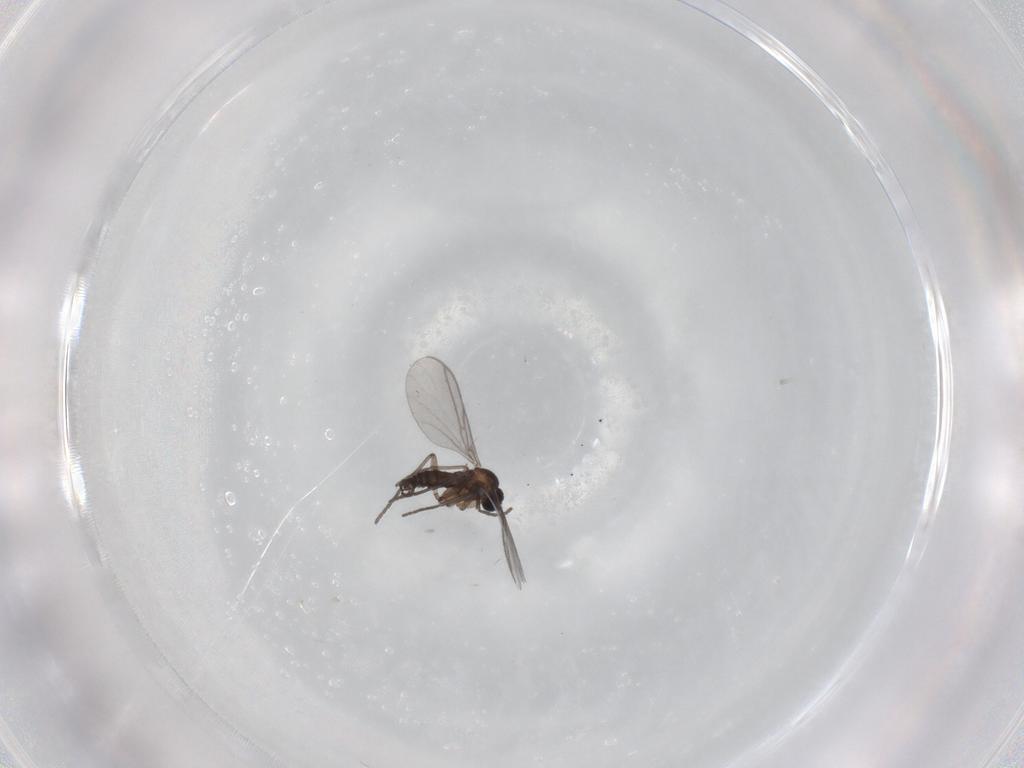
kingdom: Animalia
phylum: Arthropoda
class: Insecta
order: Diptera
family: Cecidomyiidae
